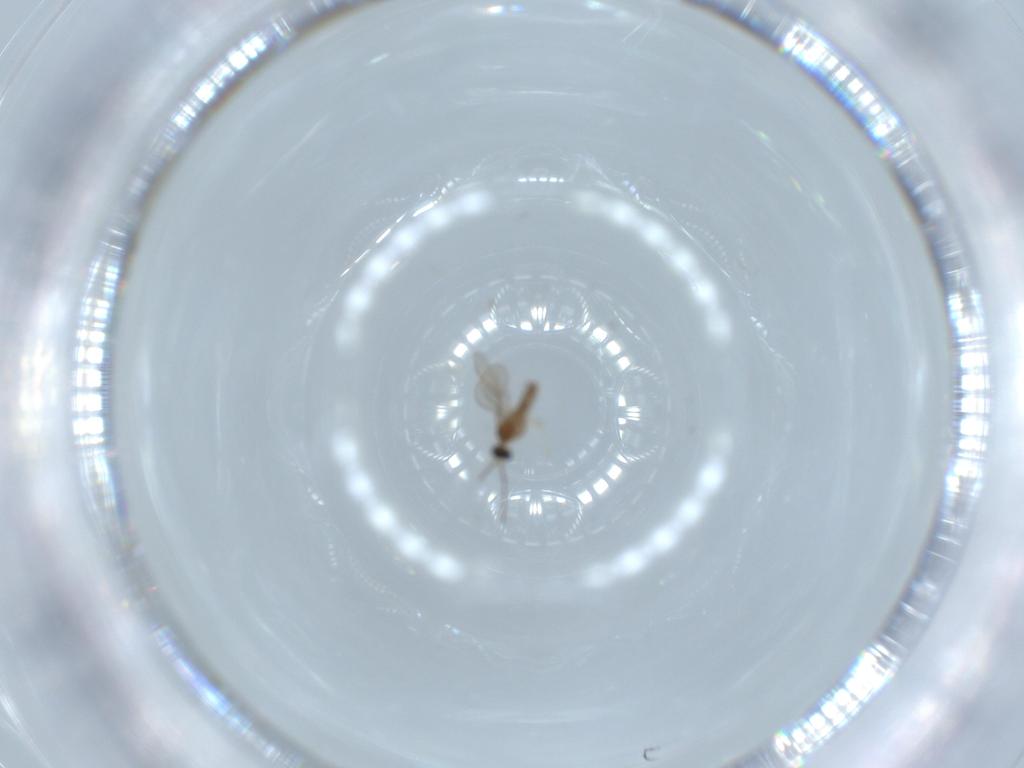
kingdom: Animalia
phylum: Arthropoda
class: Insecta
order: Diptera
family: Cecidomyiidae
